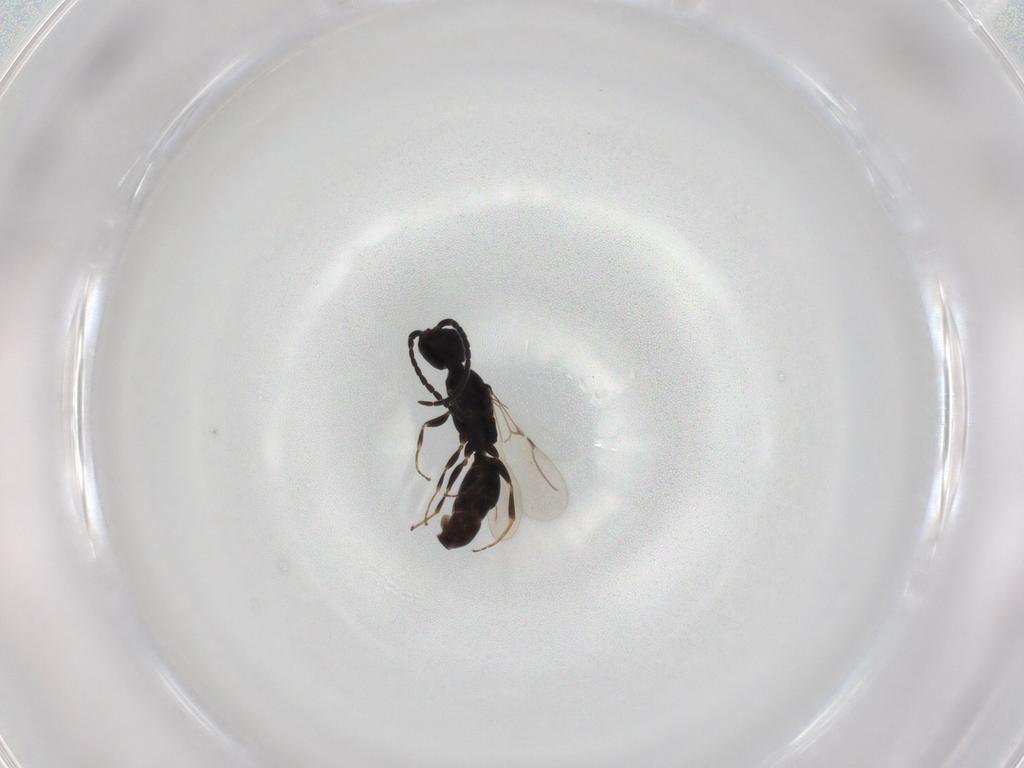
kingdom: Animalia
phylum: Arthropoda
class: Insecta
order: Hymenoptera
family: Bethylidae
